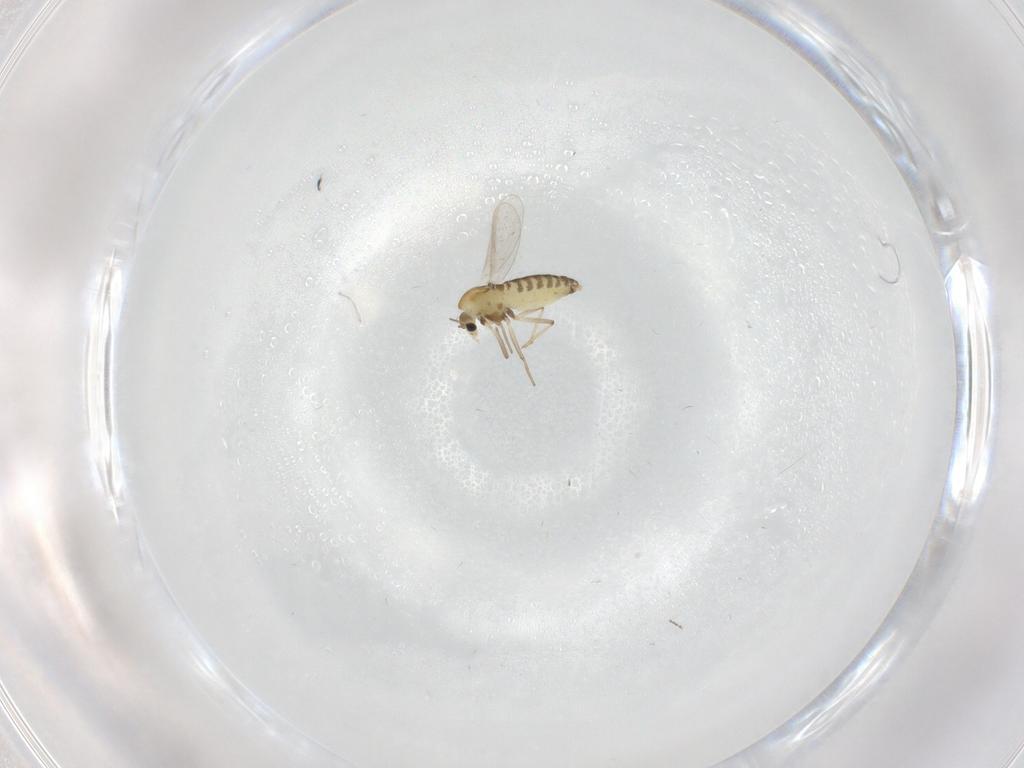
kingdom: Animalia
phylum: Arthropoda
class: Insecta
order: Diptera
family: Chironomidae
